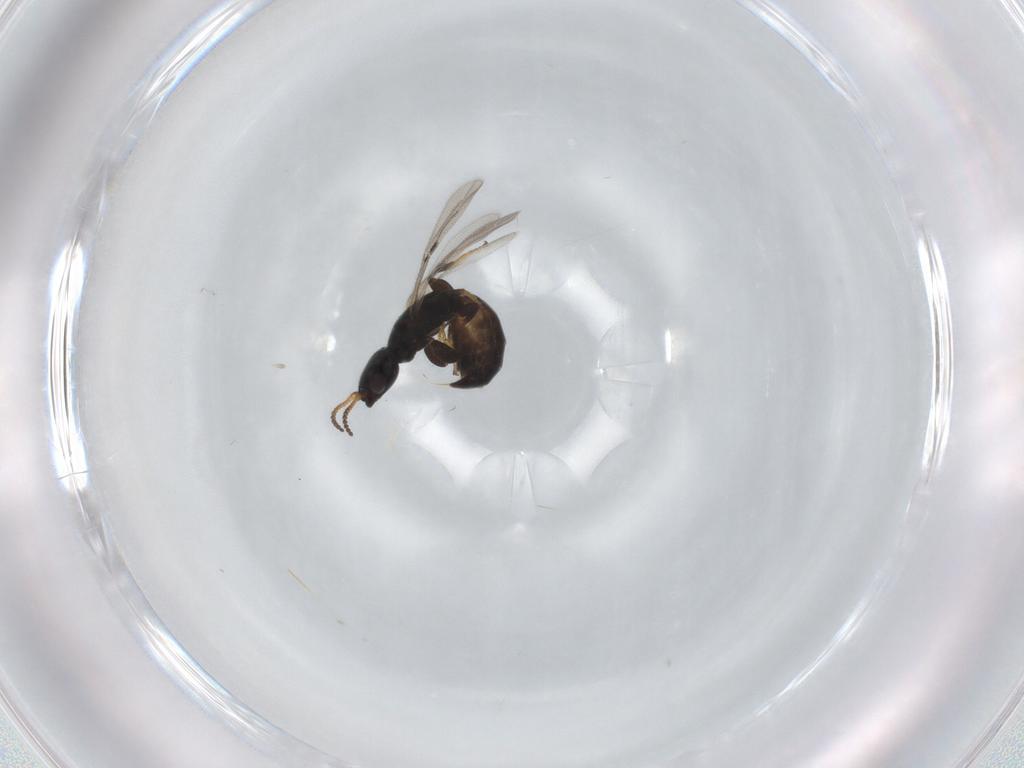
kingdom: Animalia
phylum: Arthropoda
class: Insecta
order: Hymenoptera
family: Bethylidae
